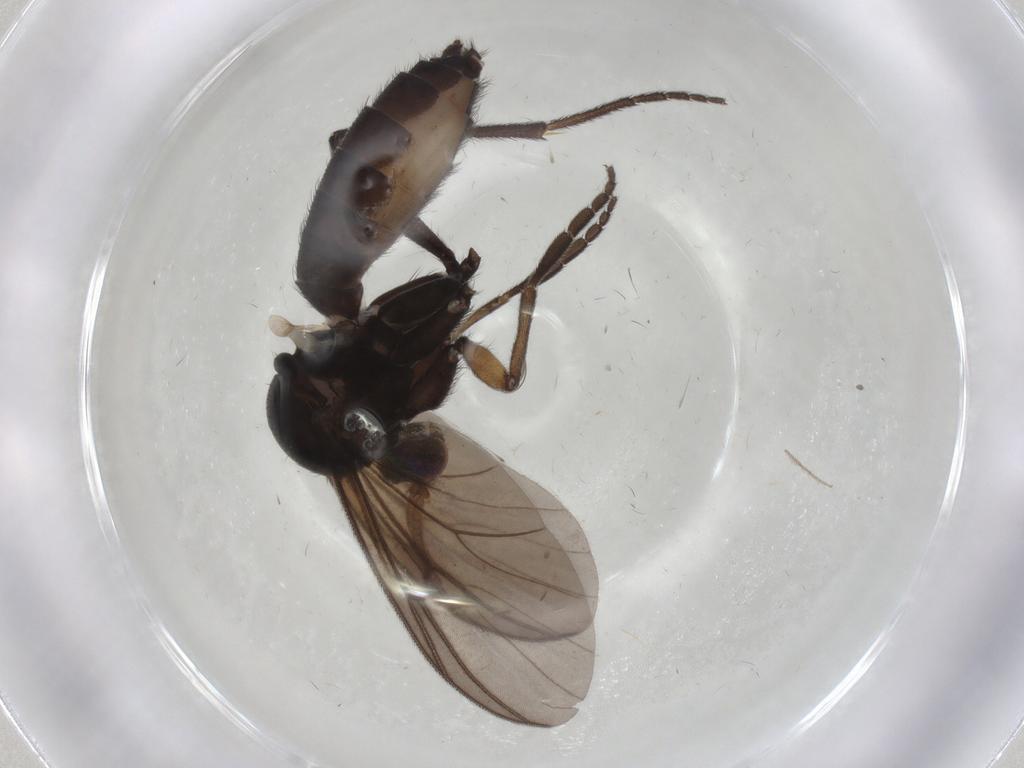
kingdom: Animalia
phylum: Arthropoda
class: Insecta
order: Diptera
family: Mycetophilidae
